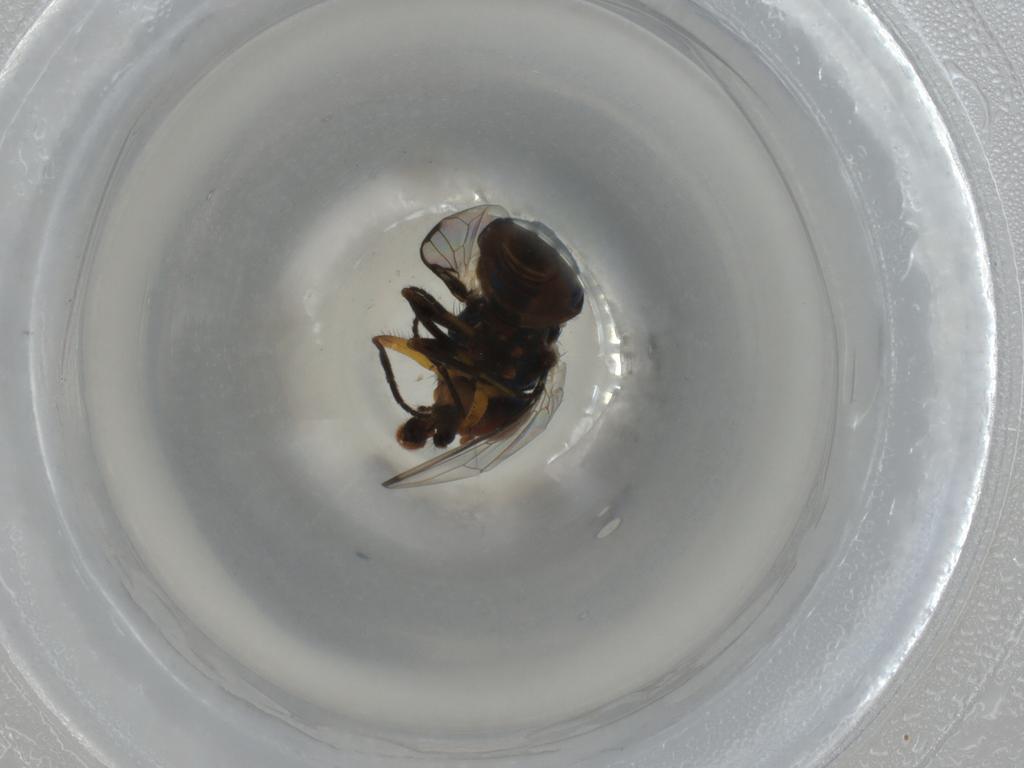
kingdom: Animalia
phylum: Arthropoda
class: Insecta
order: Diptera
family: Ulidiidae
